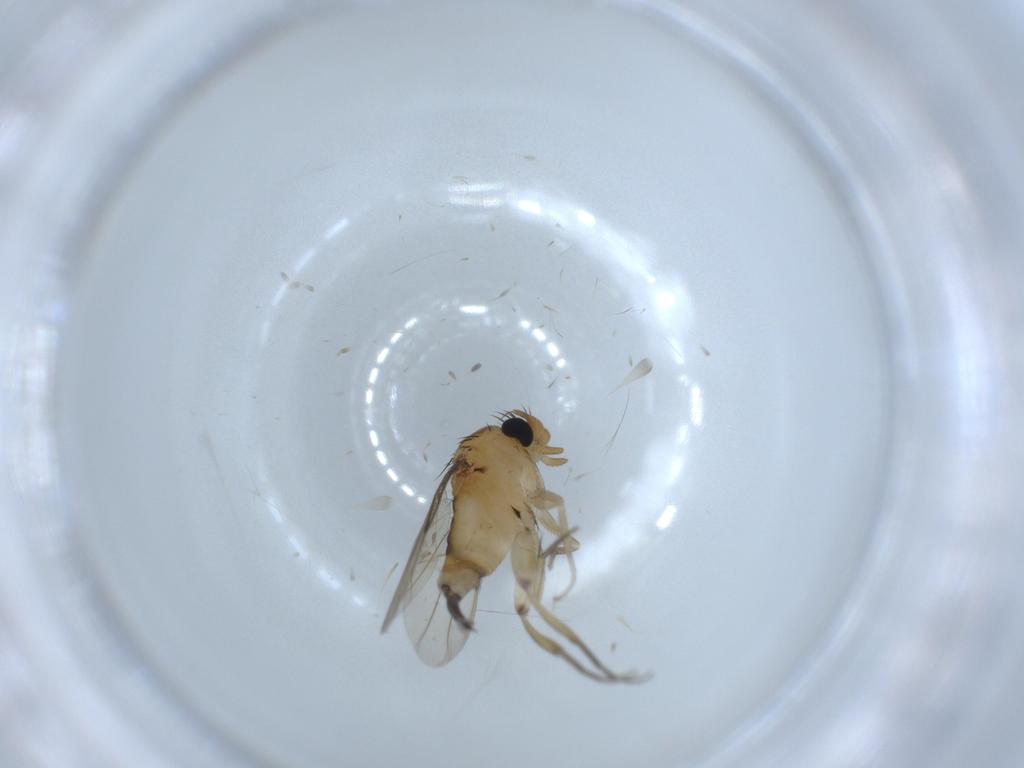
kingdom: Animalia
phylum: Arthropoda
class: Insecta
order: Diptera
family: Phoridae
